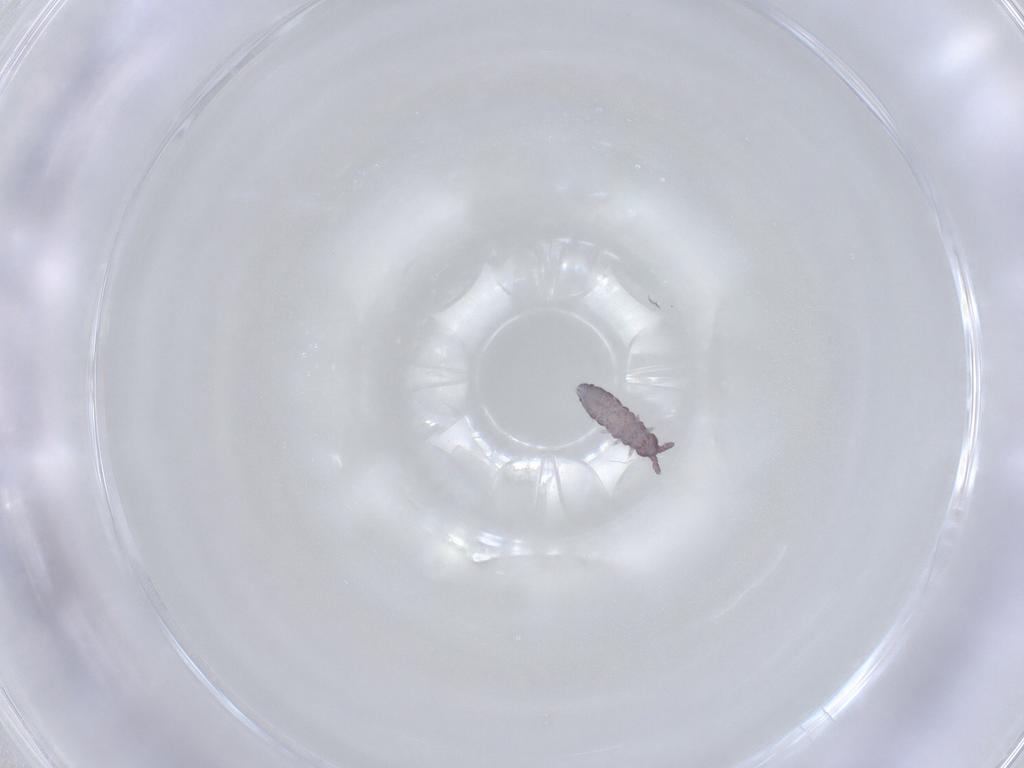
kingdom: Animalia
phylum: Arthropoda
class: Collembola
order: Poduromorpha
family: Hypogastruridae
